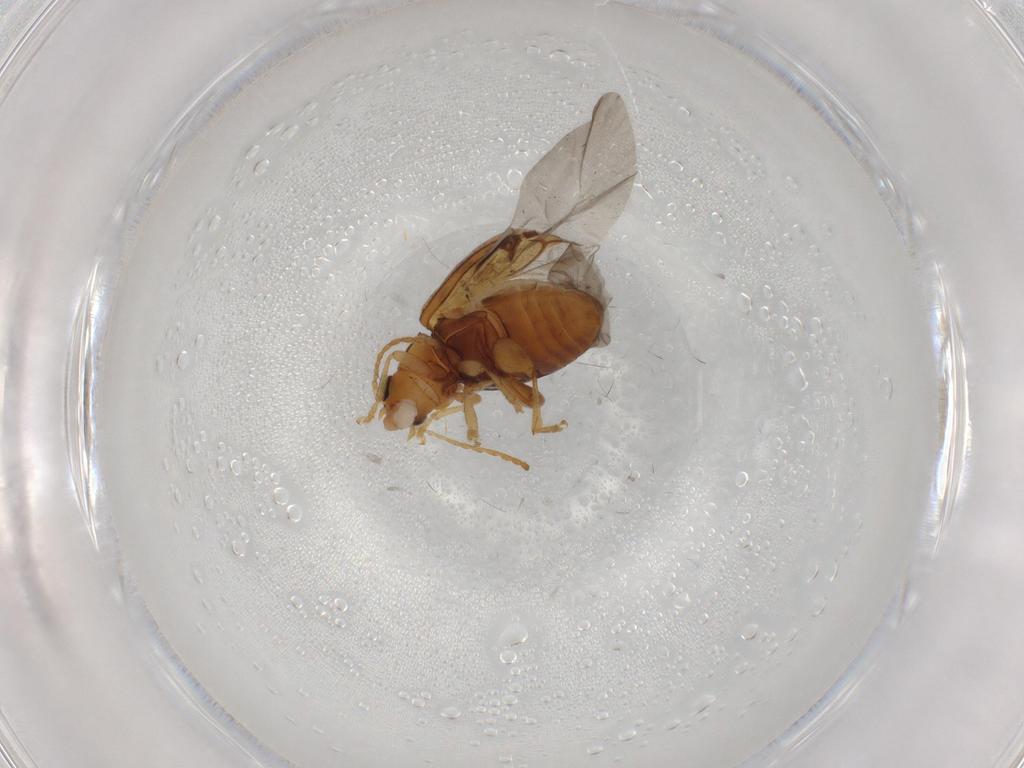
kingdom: Animalia
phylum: Arthropoda
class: Insecta
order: Coleoptera
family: Chrysomelidae
